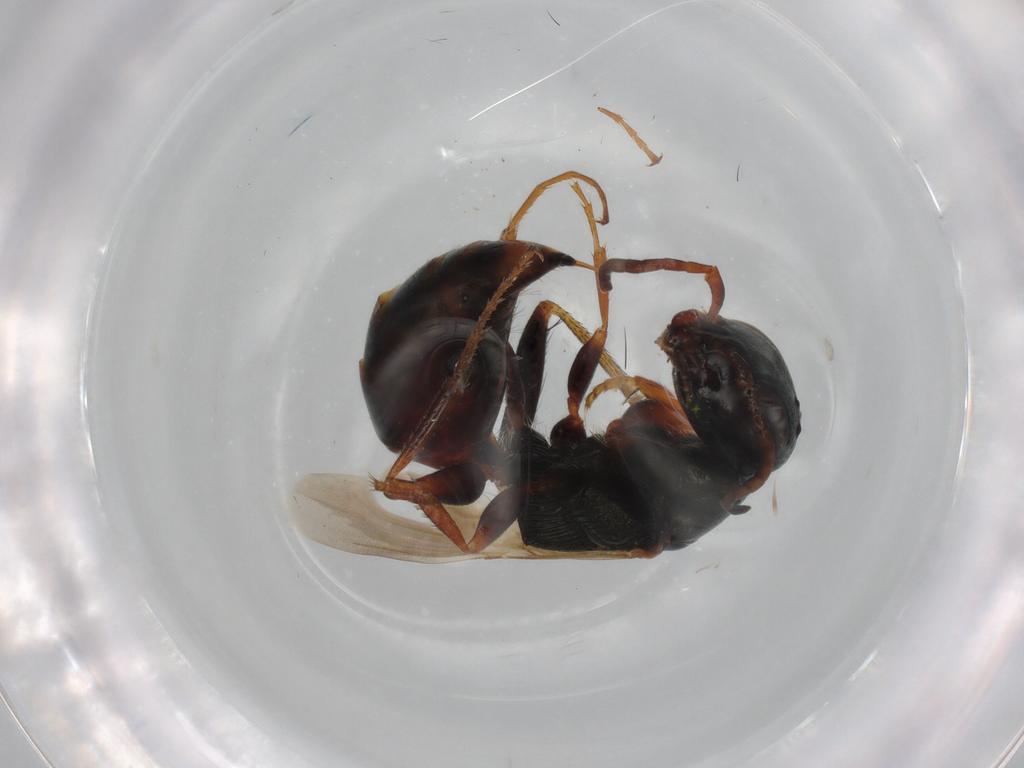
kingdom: Animalia
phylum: Arthropoda
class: Insecta
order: Hymenoptera
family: Bethylidae
